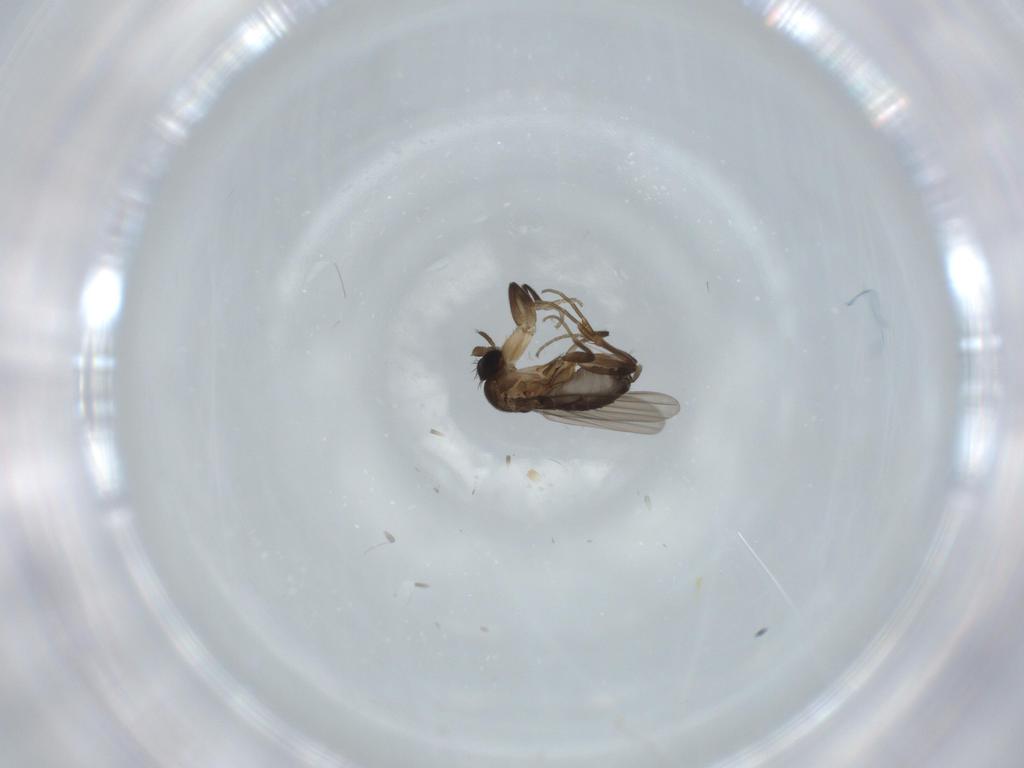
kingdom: Animalia
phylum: Arthropoda
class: Insecta
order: Diptera
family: Phoridae
